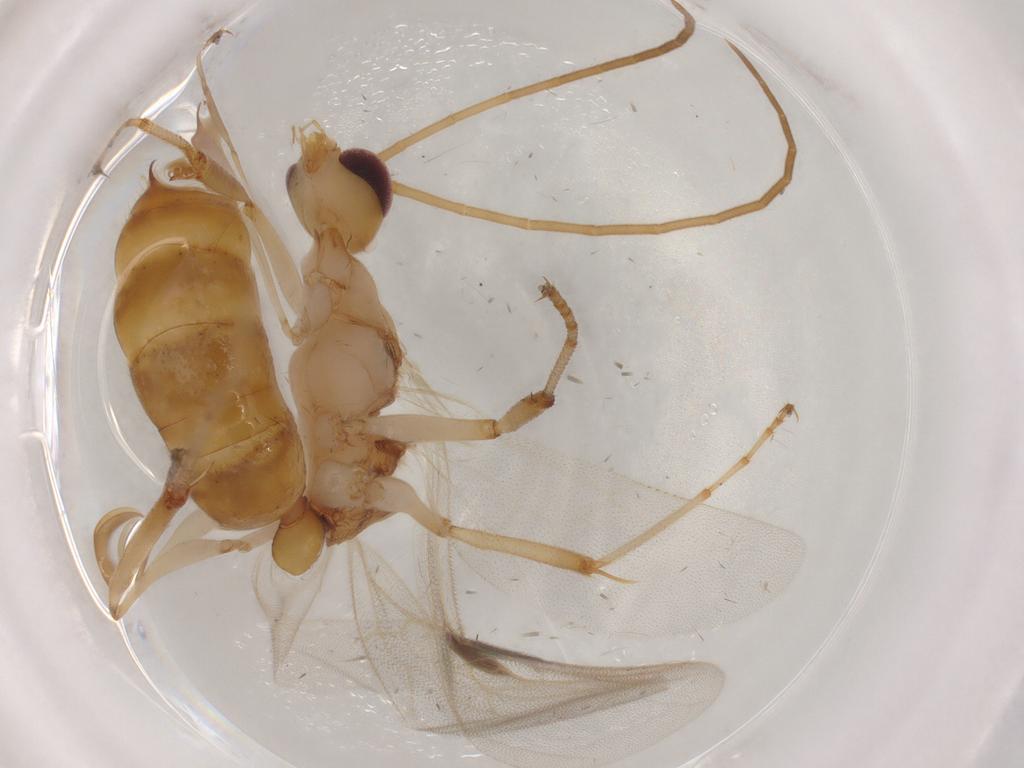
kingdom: Animalia
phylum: Arthropoda
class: Insecta
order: Hymenoptera
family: Formicidae
